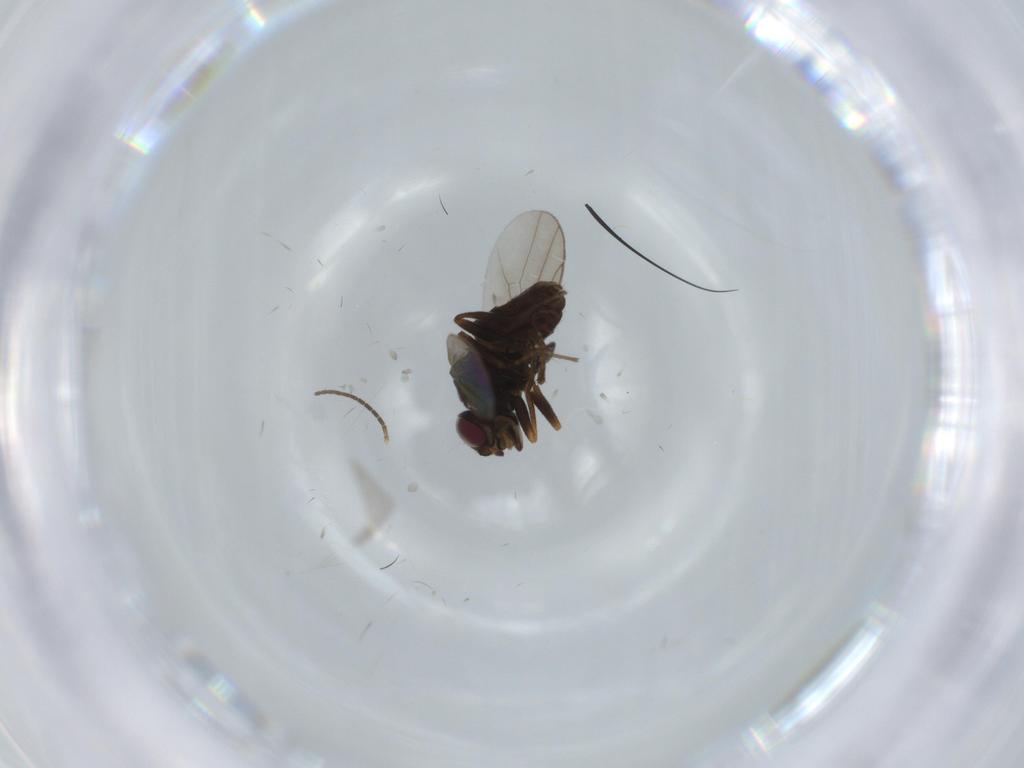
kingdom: Animalia
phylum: Arthropoda
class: Insecta
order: Diptera
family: Chloropidae
